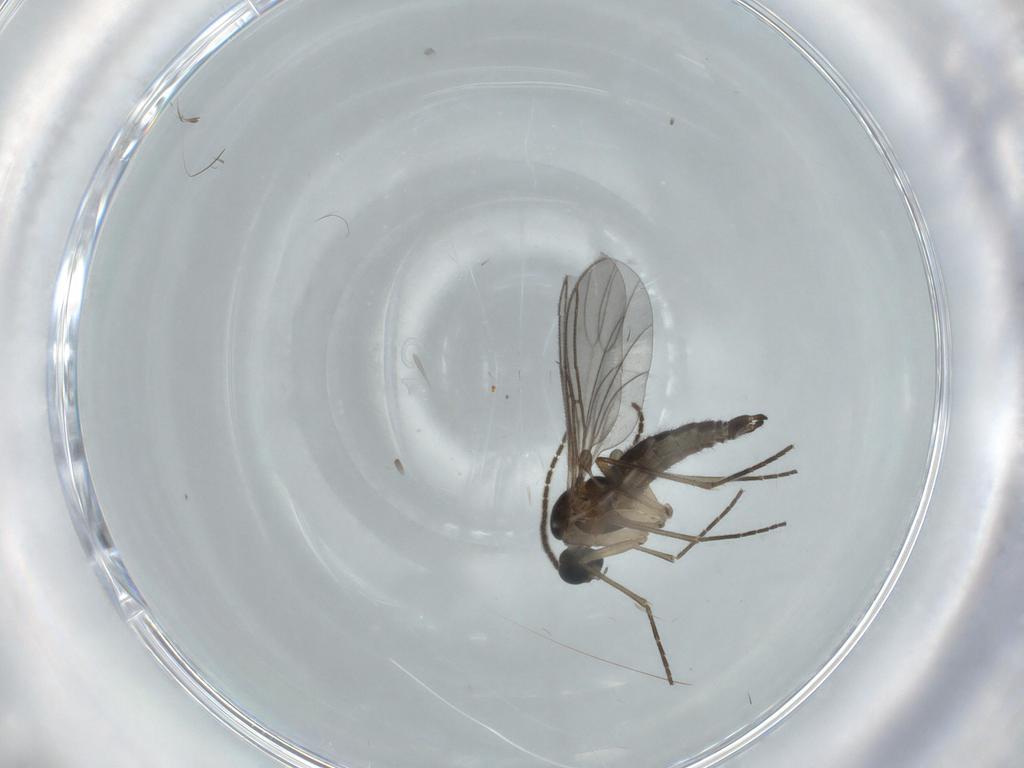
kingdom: Animalia
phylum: Arthropoda
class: Insecta
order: Diptera
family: Sciaridae
